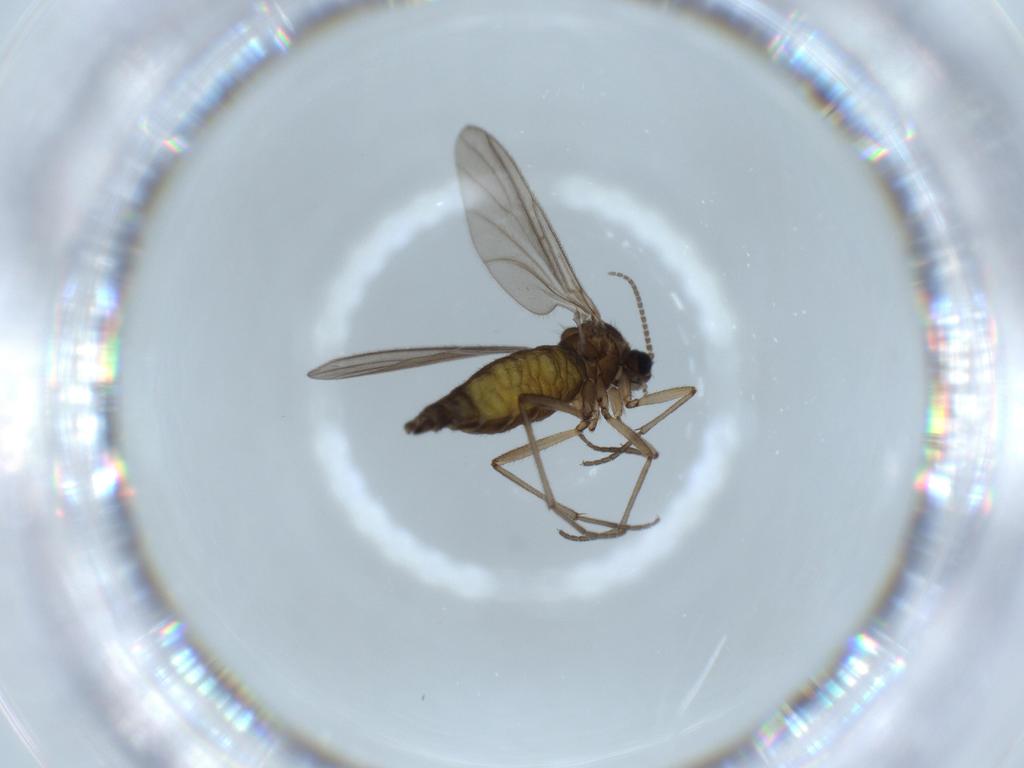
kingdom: Animalia
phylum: Arthropoda
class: Insecta
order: Diptera
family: Sciaridae
